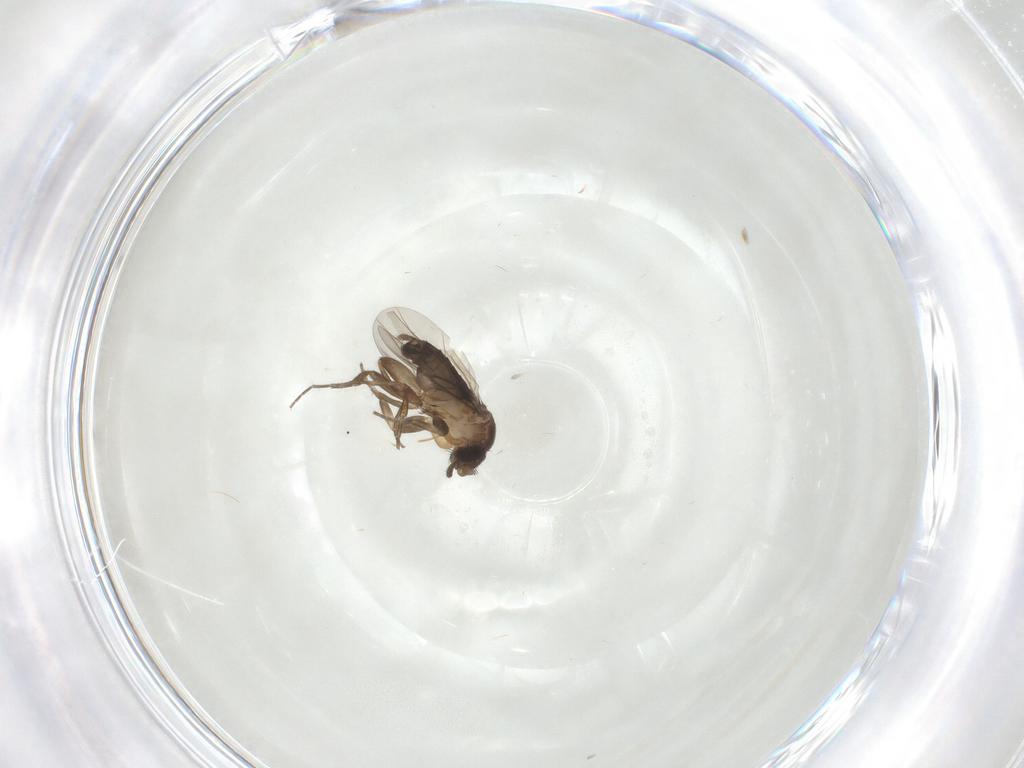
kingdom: Animalia
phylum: Arthropoda
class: Insecta
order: Diptera
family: Phoridae
